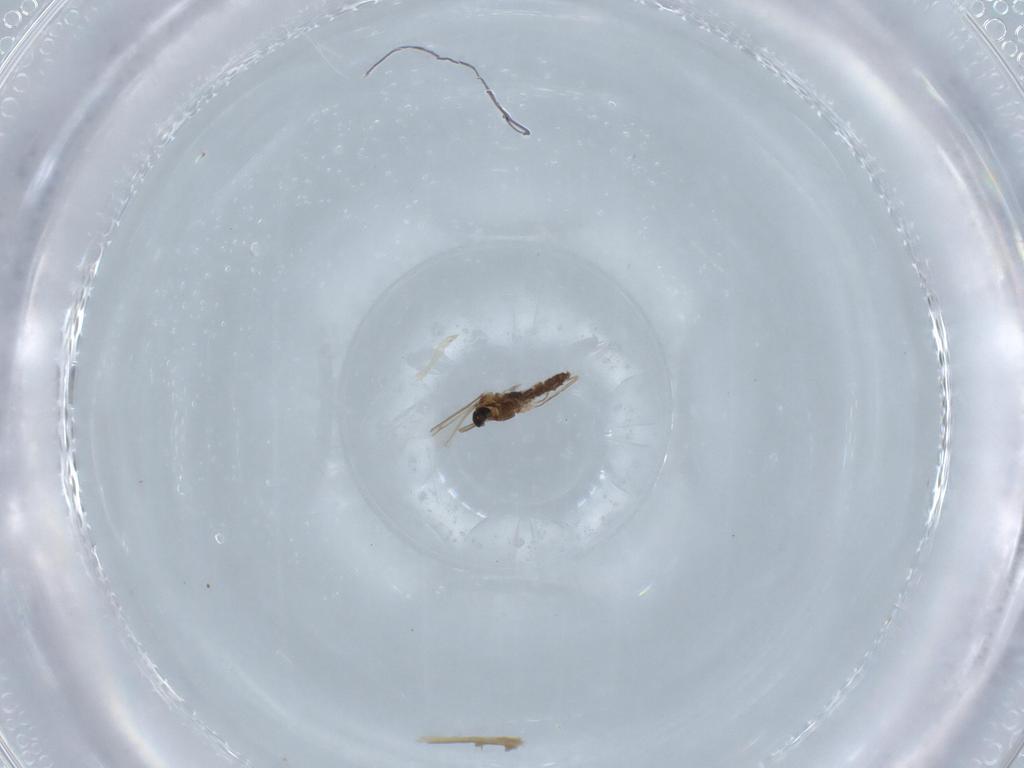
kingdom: Animalia
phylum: Arthropoda
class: Insecta
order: Diptera
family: Cecidomyiidae
